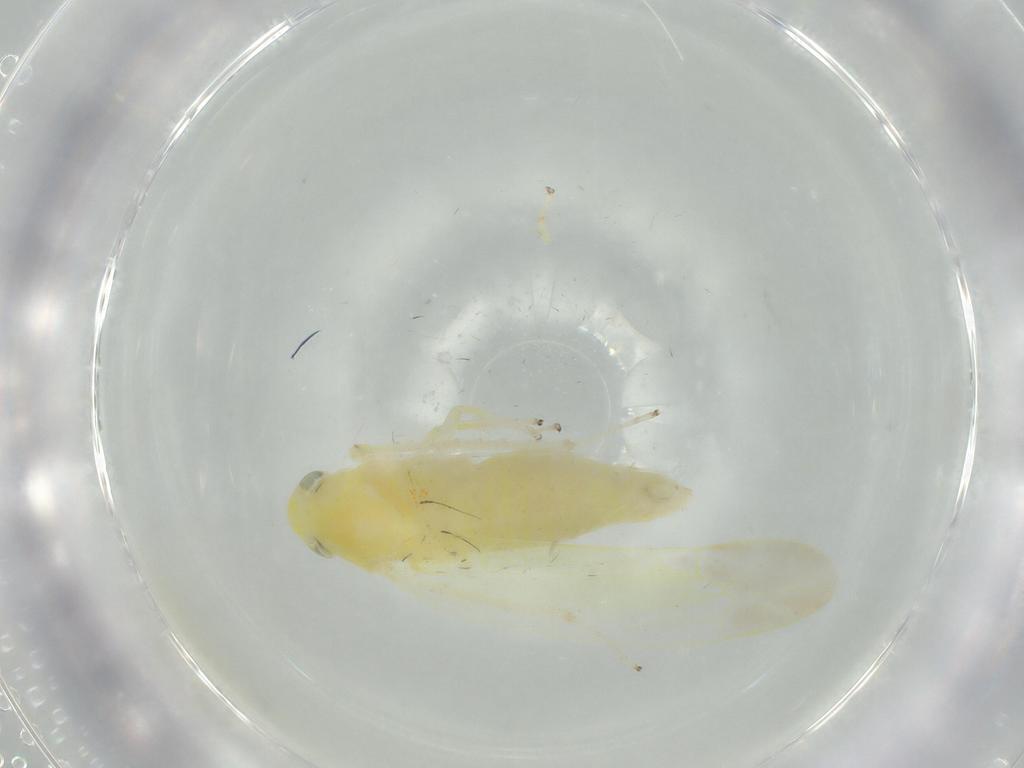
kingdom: Animalia
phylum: Arthropoda
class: Insecta
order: Hemiptera
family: Cicadellidae
